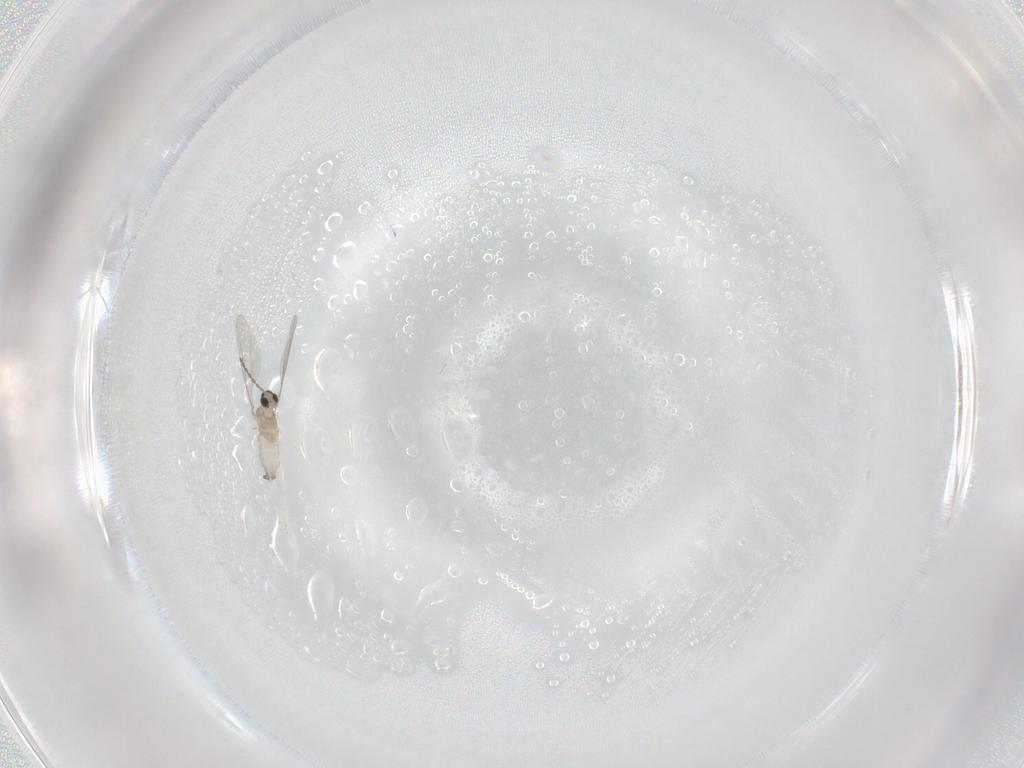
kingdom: Animalia
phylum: Arthropoda
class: Insecta
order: Diptera
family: Cecidomyiidae
